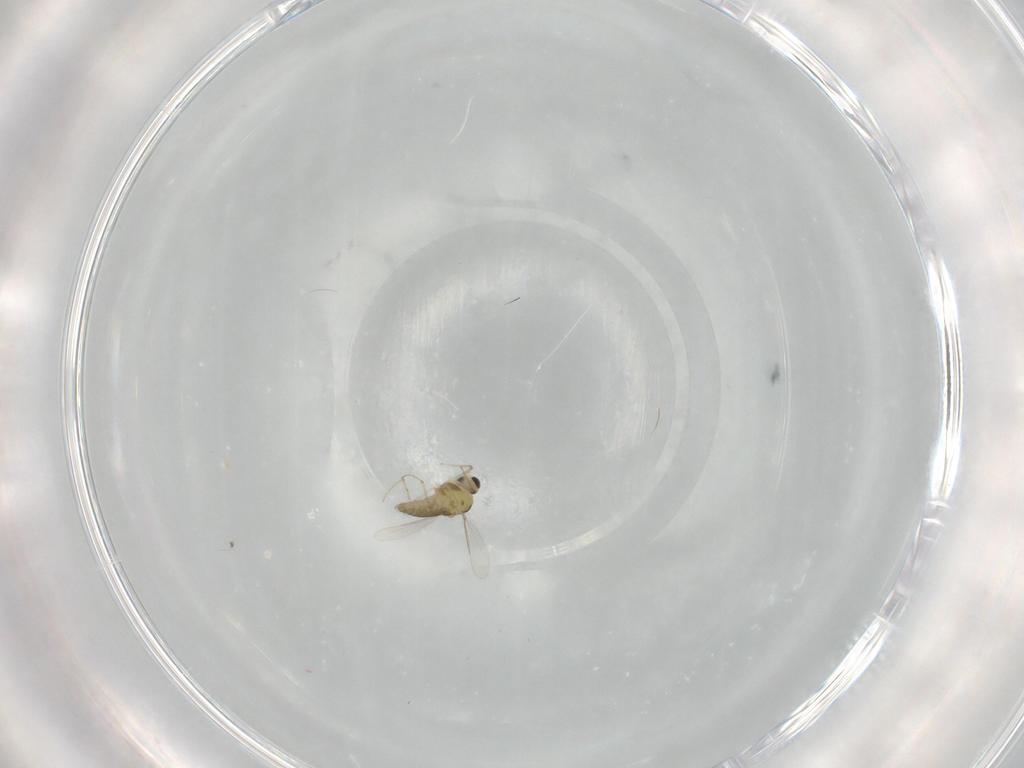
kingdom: Animalia
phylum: Arthropoda
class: Insecta
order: Diptera
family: Cecidomyiidae
